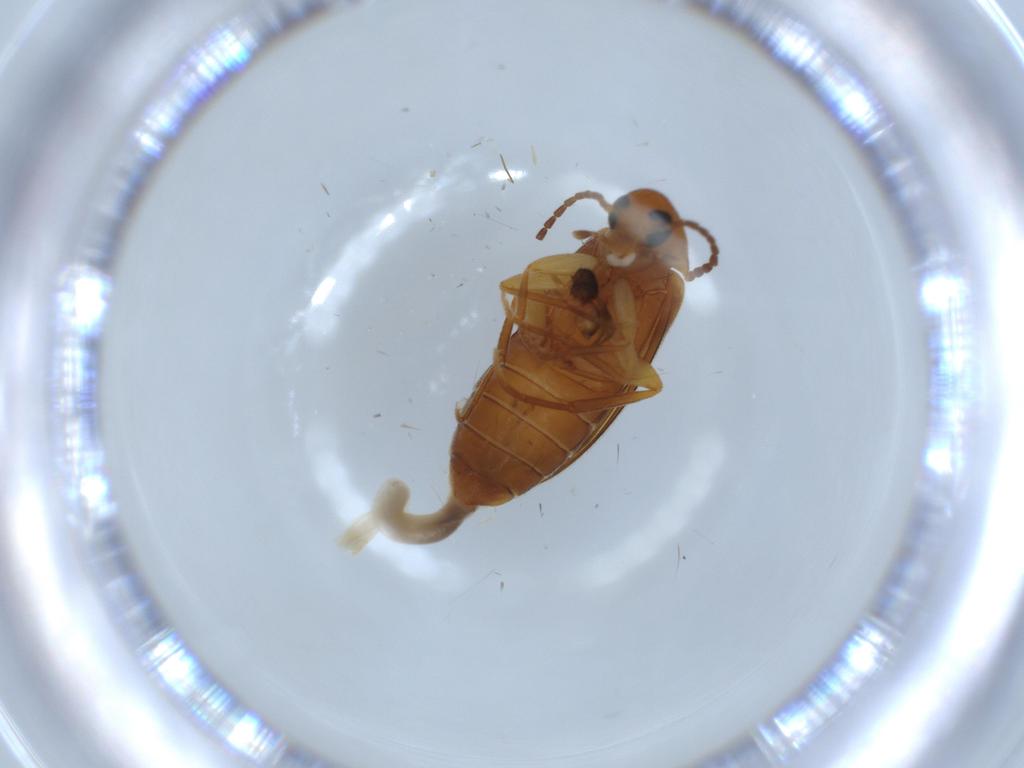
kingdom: Animalia
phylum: Arthropoda
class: Insecta
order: Coleoptera
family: Scraptiidae
